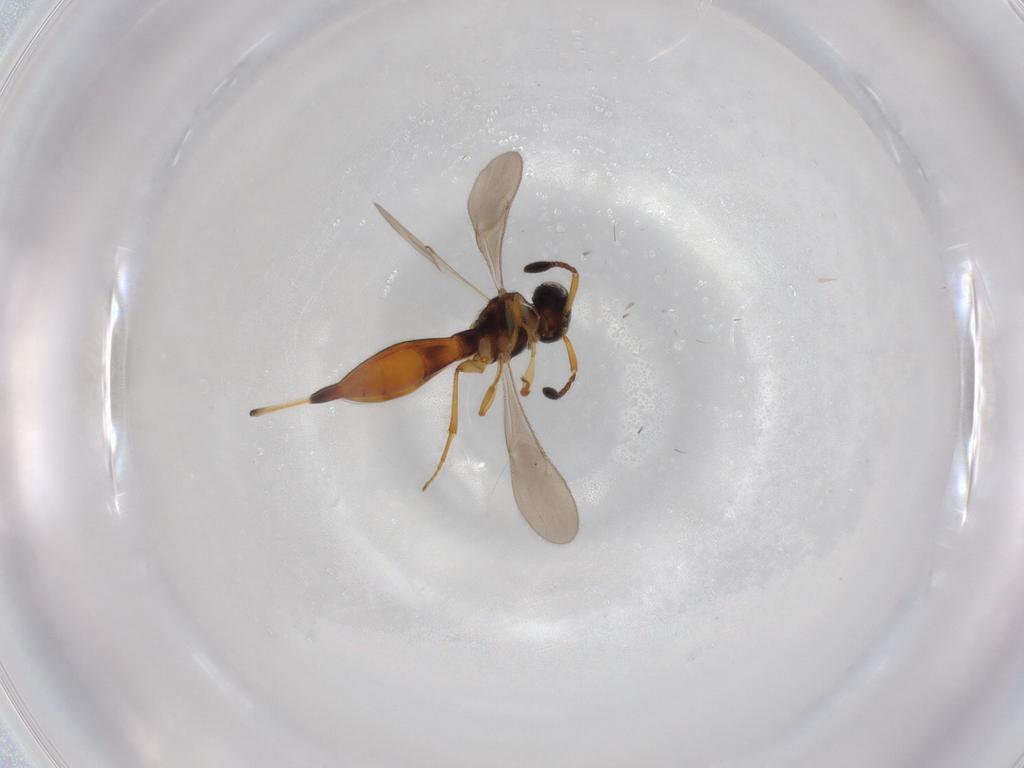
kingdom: Animalia
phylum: Arthropoda
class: Insecta
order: Hymenoptera
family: Scelionidae
